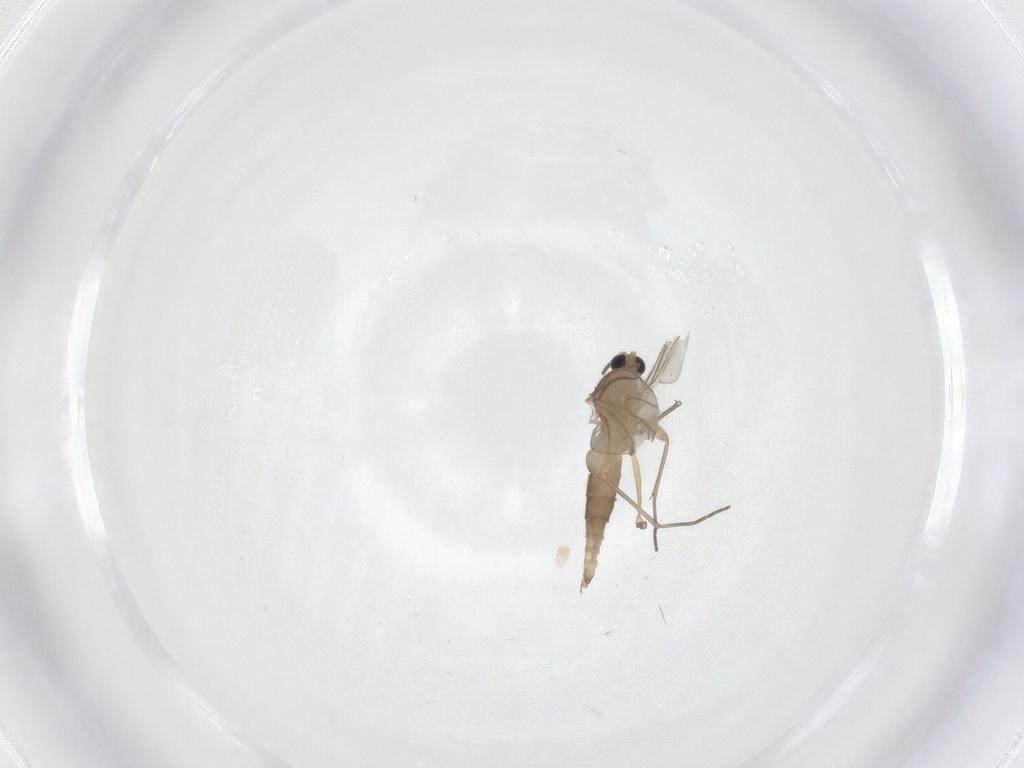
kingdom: Animalia
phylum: Arthropoda
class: Insecta
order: Diptera
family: Sciaridae
